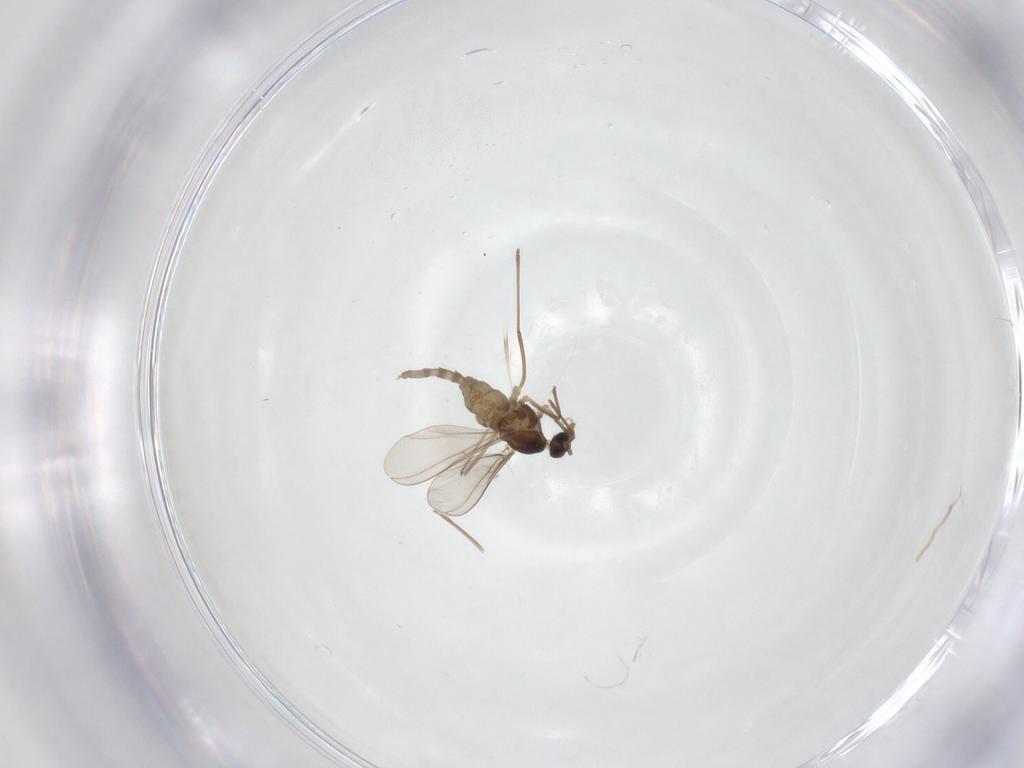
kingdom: Animalia
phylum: Arthropoda
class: Insecta
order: Diptera
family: Cecidomyiidae
